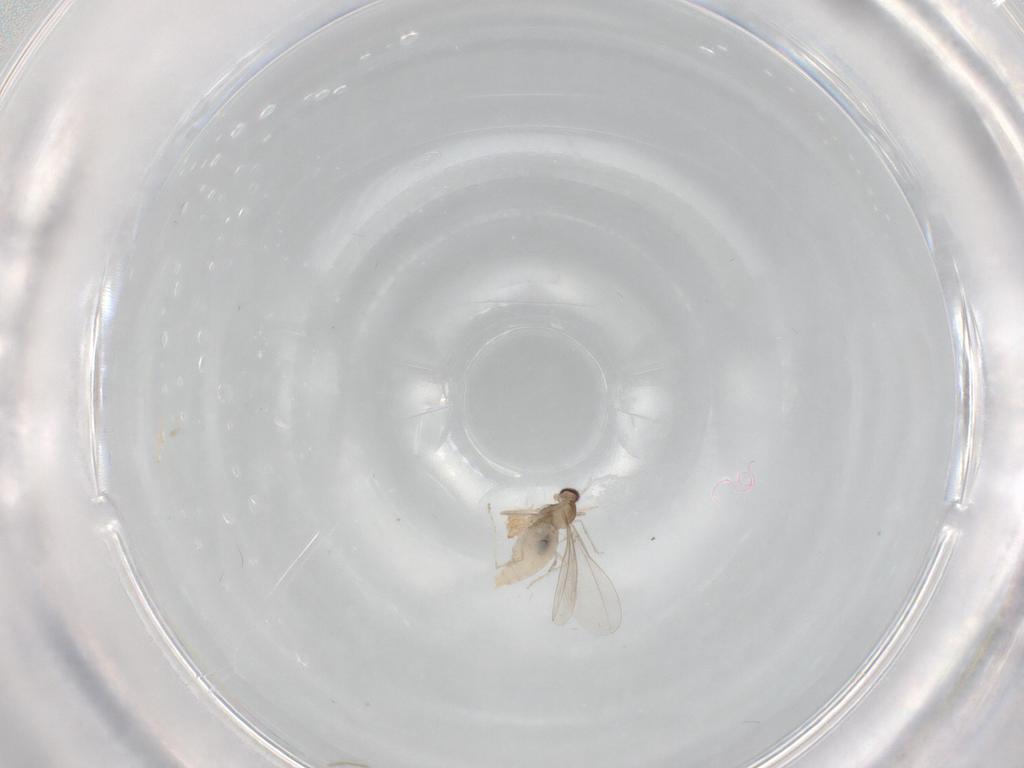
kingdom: Animalia
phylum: Arthropoda
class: Insecta
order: Diptera
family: Cecidomyiidae
